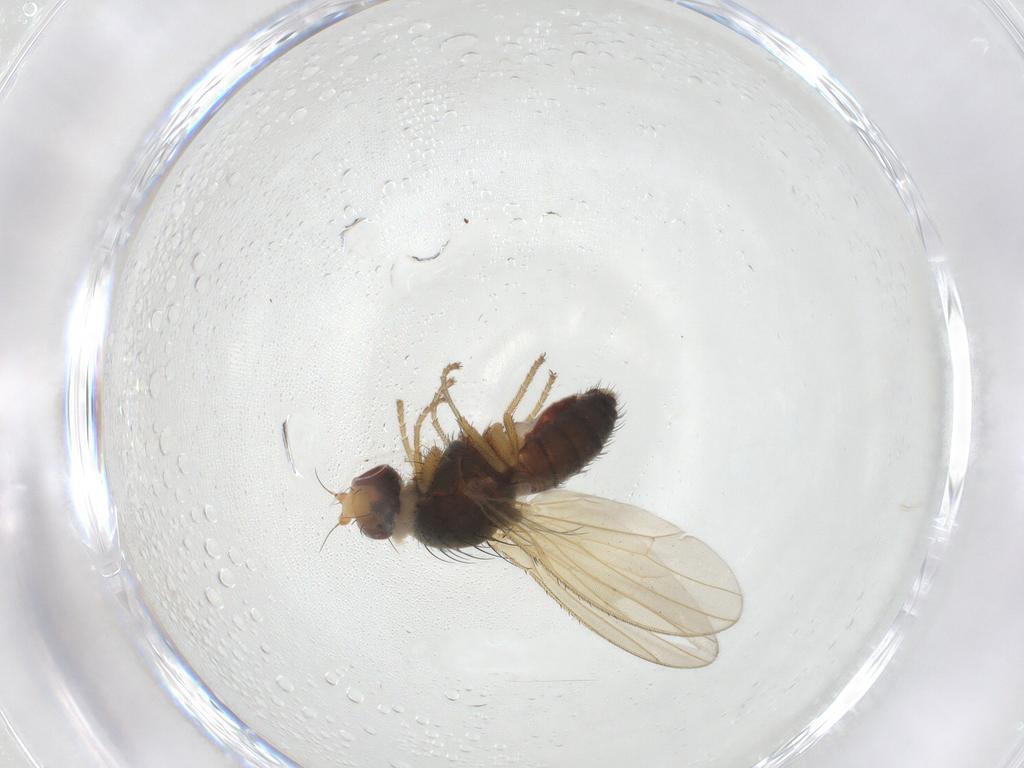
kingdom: Animalia
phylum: Arthropoda
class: Insecta
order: Diptera
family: Heleomyzidae
